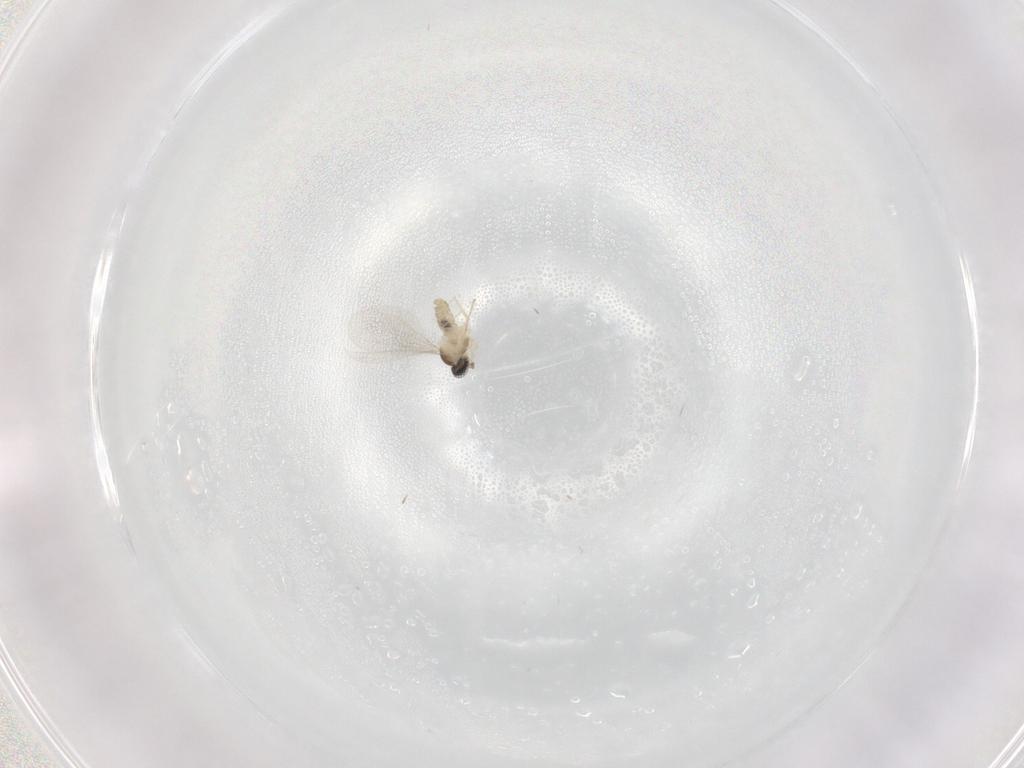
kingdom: Animalia
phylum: Arthropoda
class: Insecta
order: Diptera
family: Cecidomyiidae
